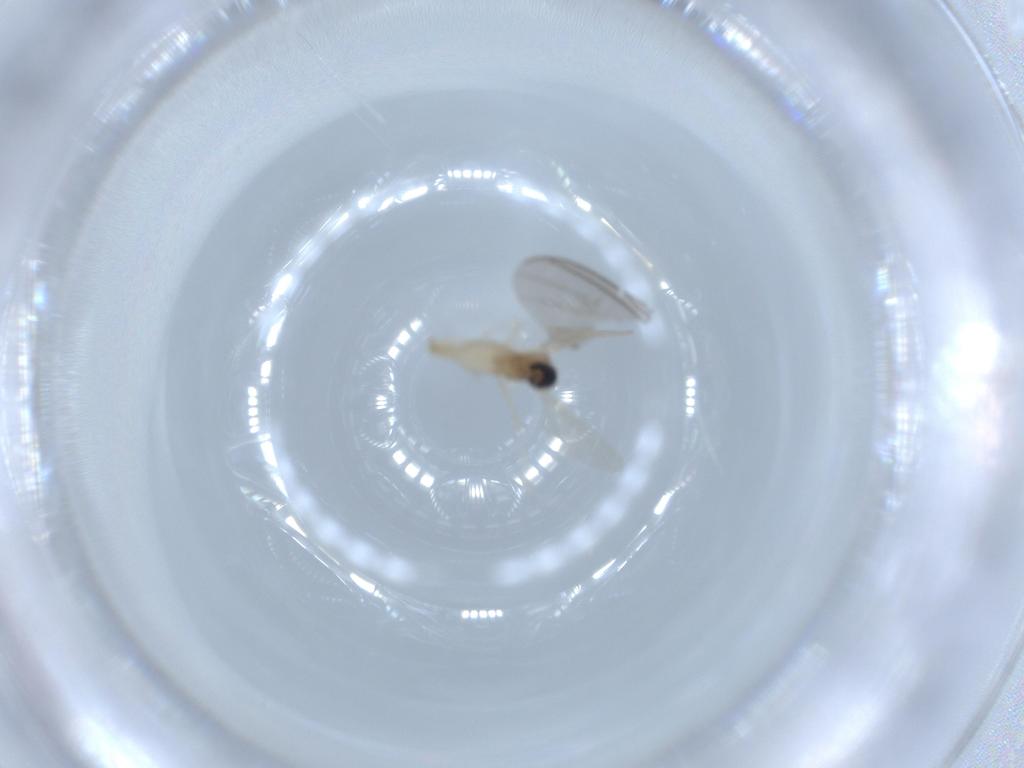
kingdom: Animalia
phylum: Arthropoda
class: Insecta
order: Diptera
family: Cecidomyiidae
